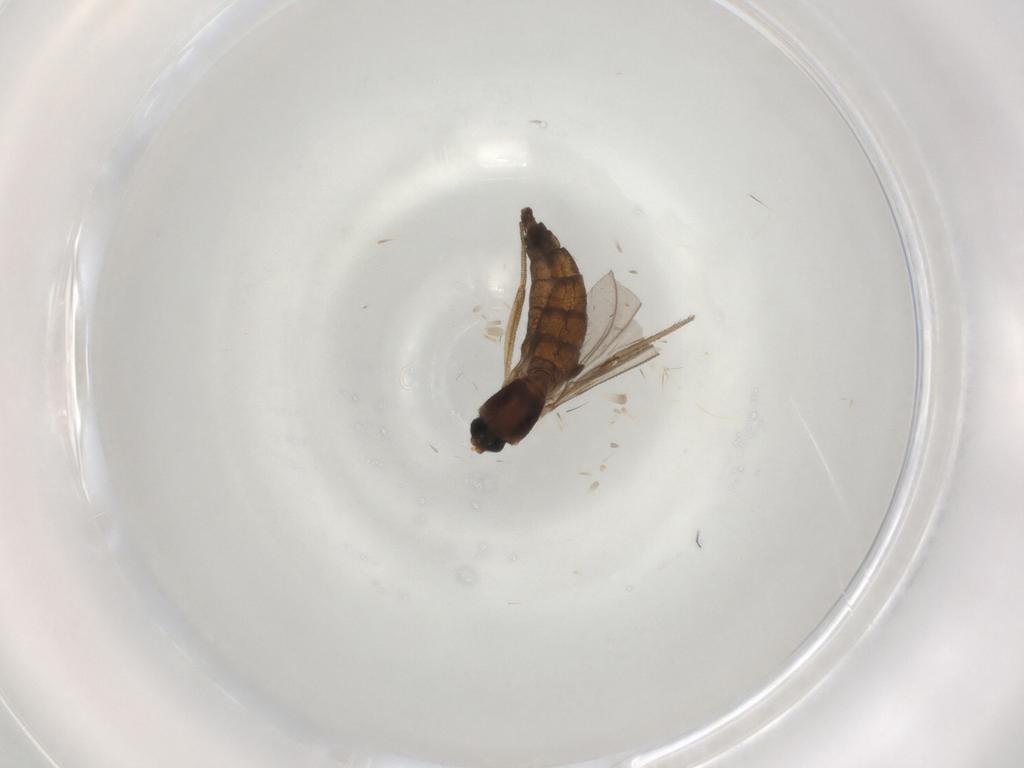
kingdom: Animalia
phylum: Arthropoda
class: Insecta
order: Diptera
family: Sciaridae
